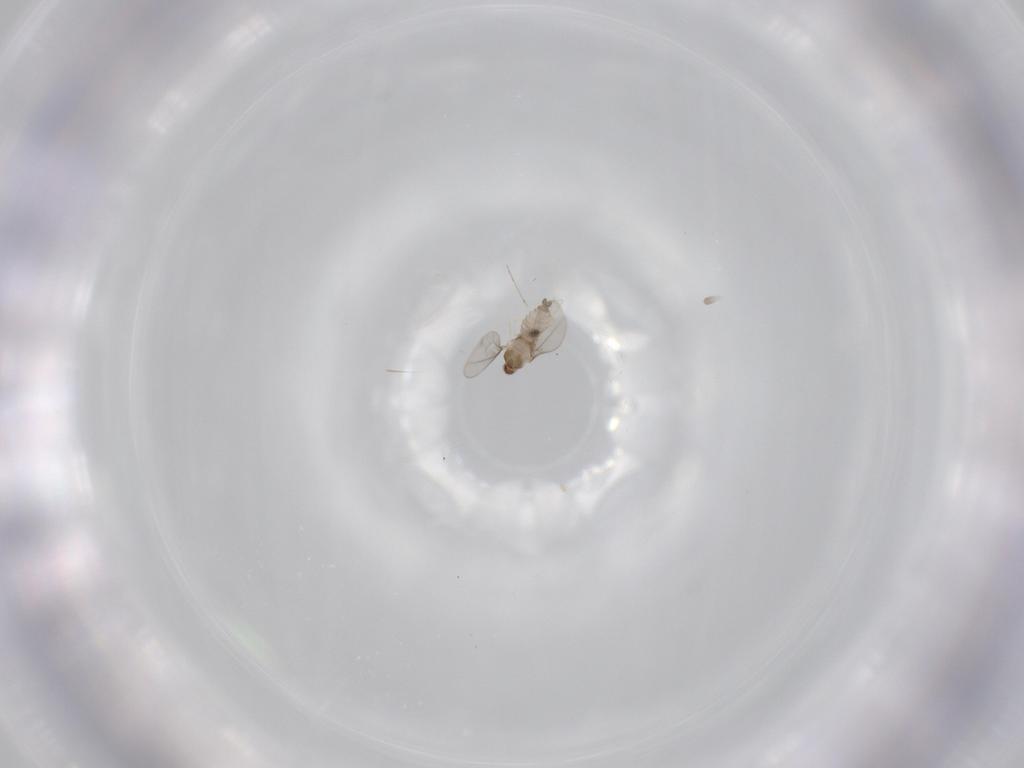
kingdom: Animalia
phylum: Arthropoda
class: Insecta
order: Diptera
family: Cecidomyiidae
